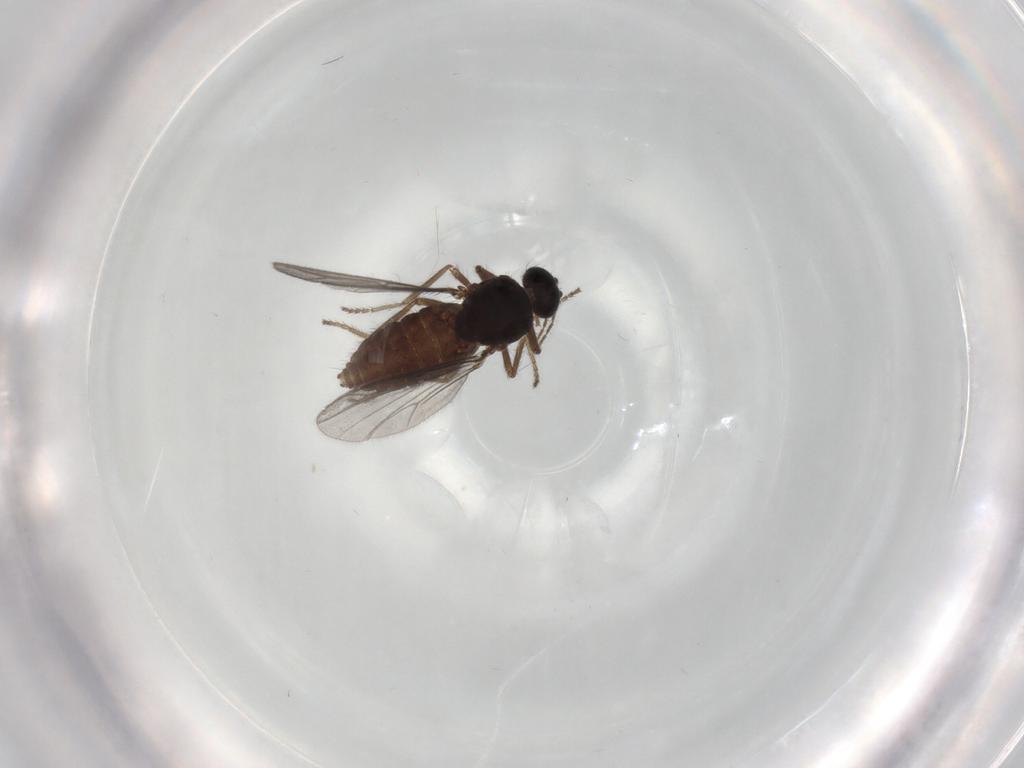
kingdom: Animalia
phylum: Arthropoda
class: Insecta
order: Diptera
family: Ceratopogonidae
